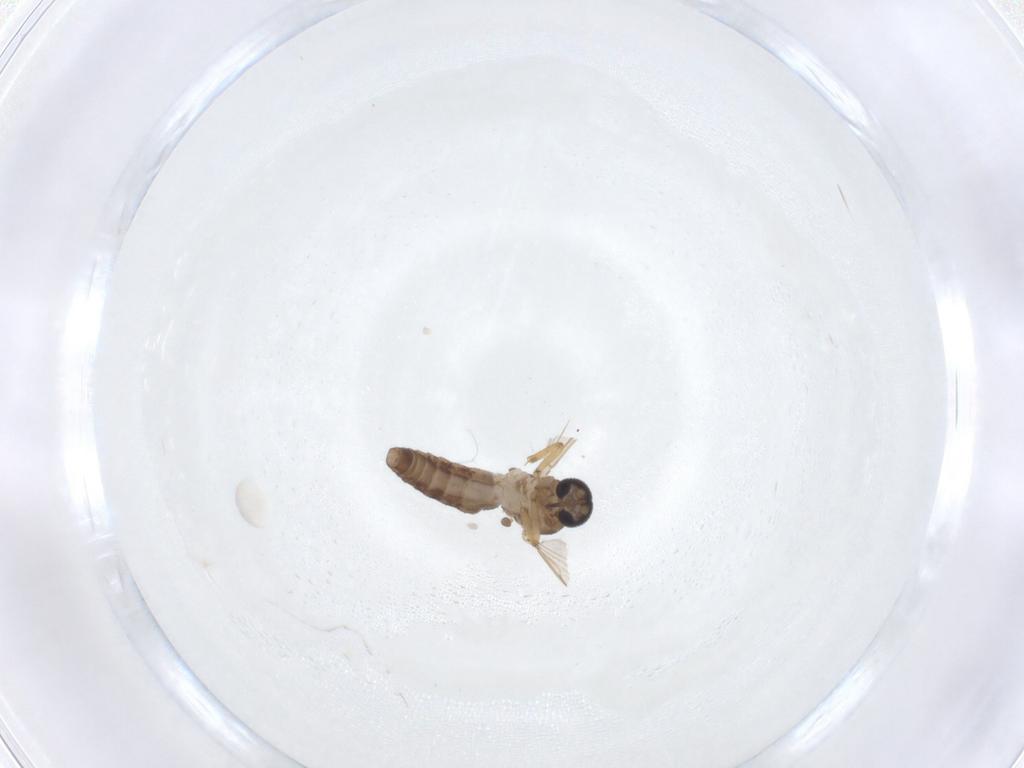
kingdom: Animalia
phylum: Arthropoda
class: Insecta
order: Diptera
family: Ceratopogonidae
